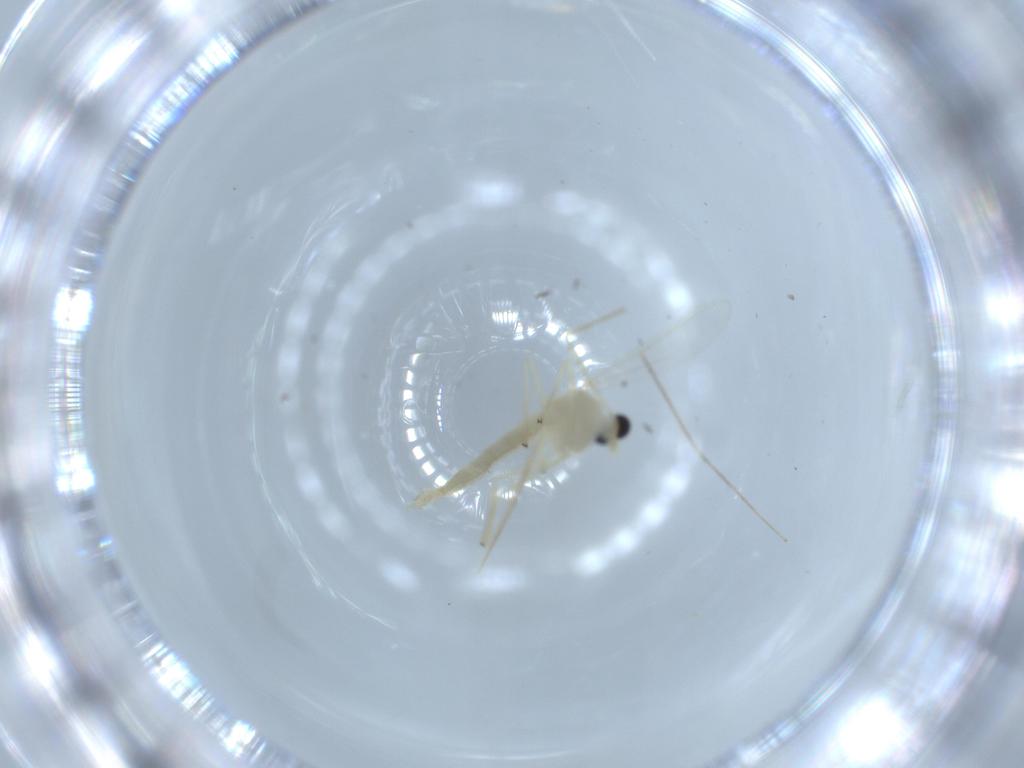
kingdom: Animalia
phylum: Arthropoda
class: Insecta
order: Diptera
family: Chironomidae
